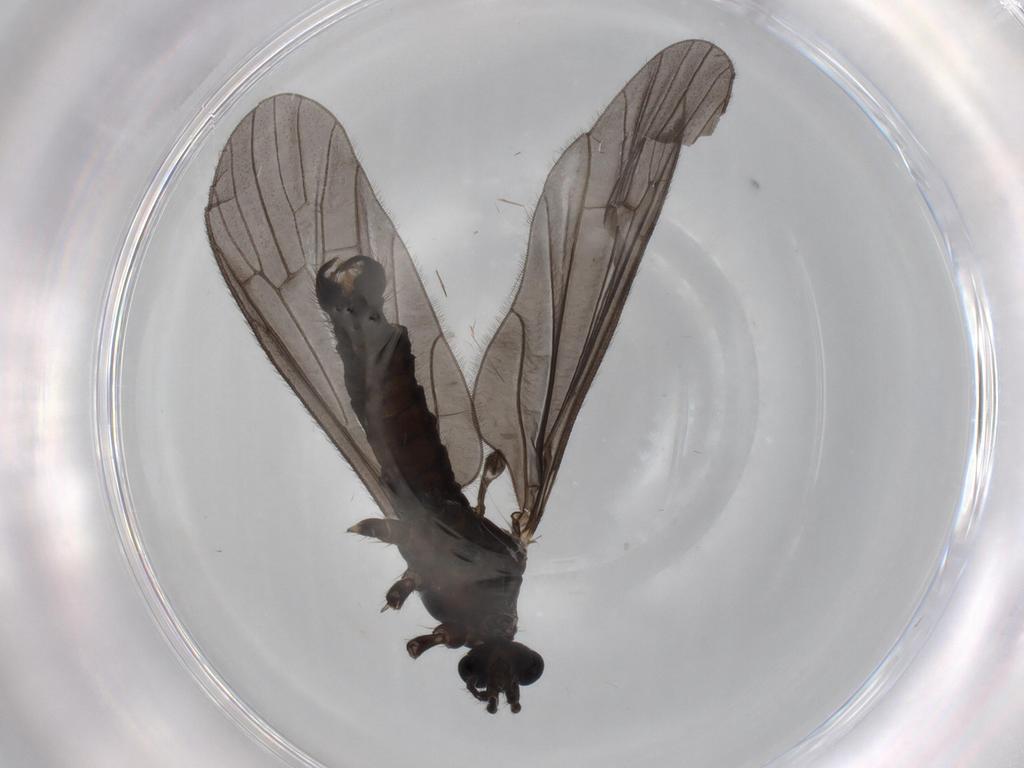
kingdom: Animalia
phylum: Arthropoda
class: Insecta
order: Diptera
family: Limoniidae
